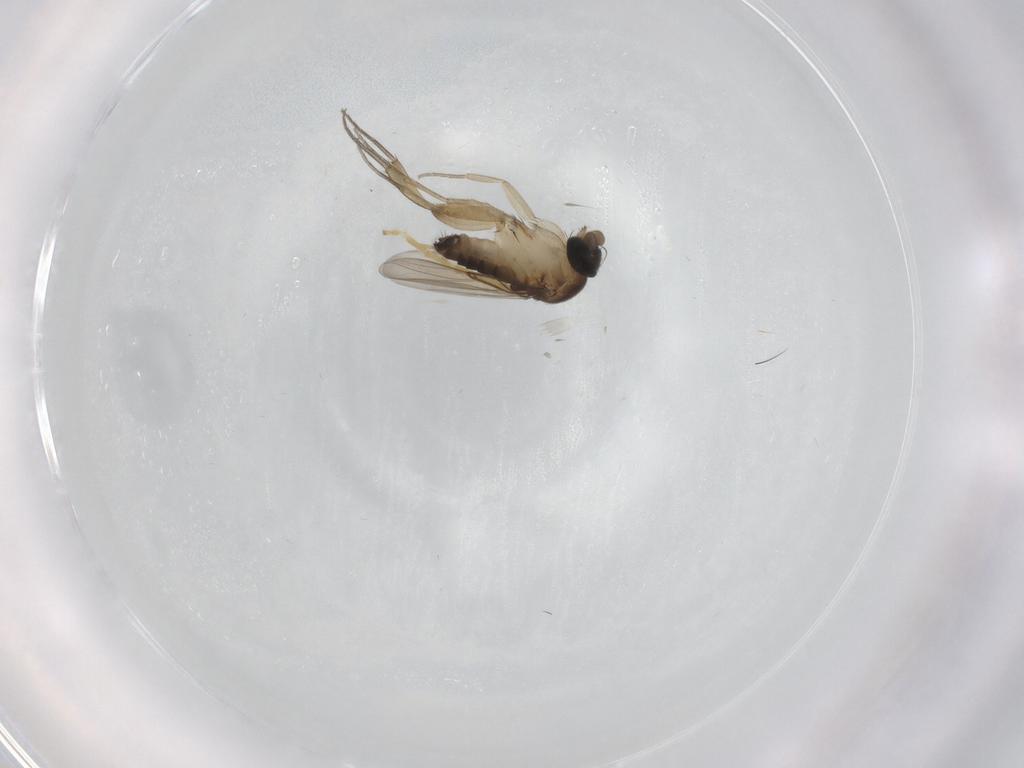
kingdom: Animalia
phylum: Arthropoda
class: Insecta
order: Diptera
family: Phoridae
